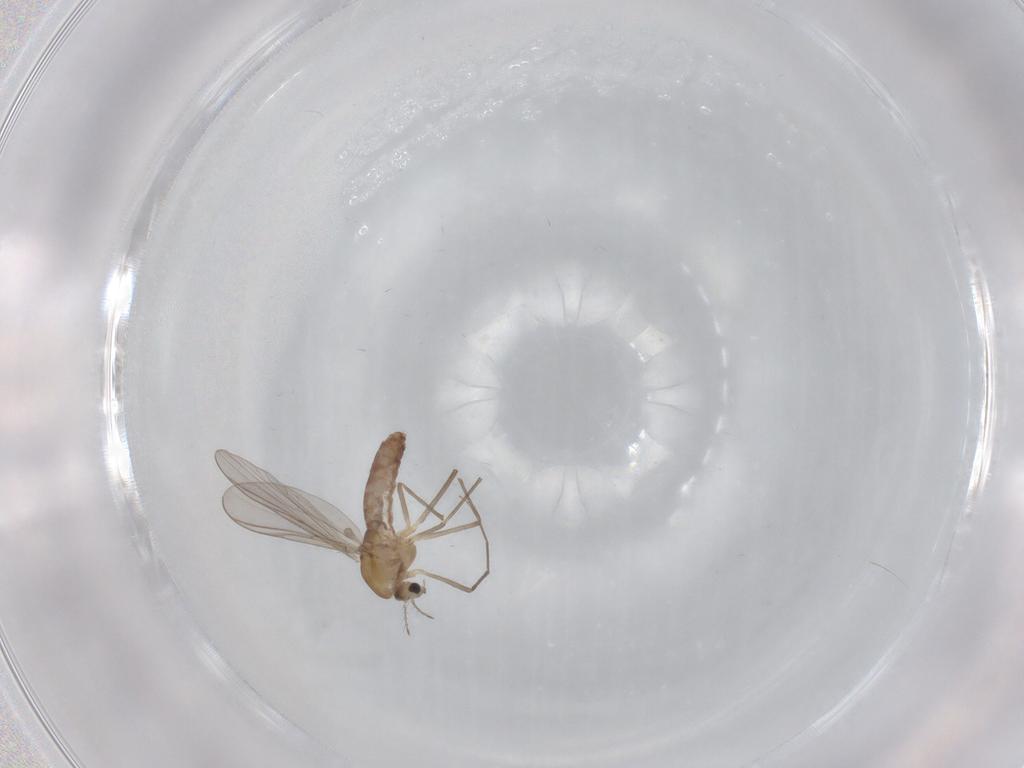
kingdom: Animalia
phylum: Arthropoda
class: Insecta
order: Diptera
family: Chironomidae
